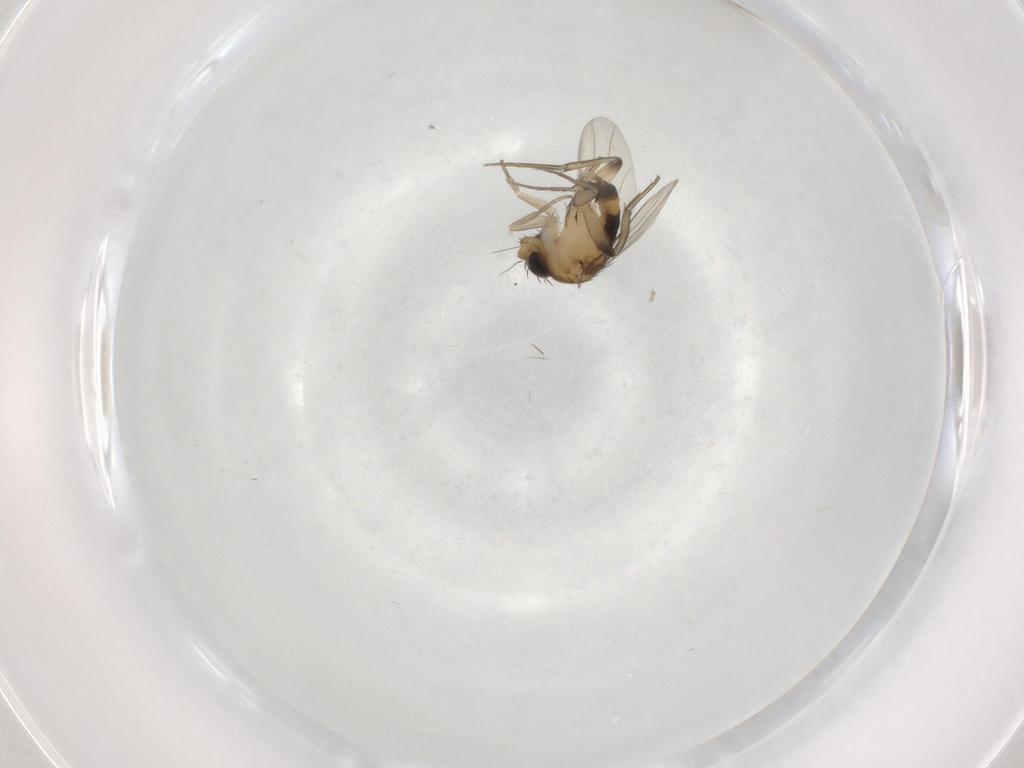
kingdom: Animalia
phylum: Arthropoda
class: Insecta
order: Diptera
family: Phoridae
